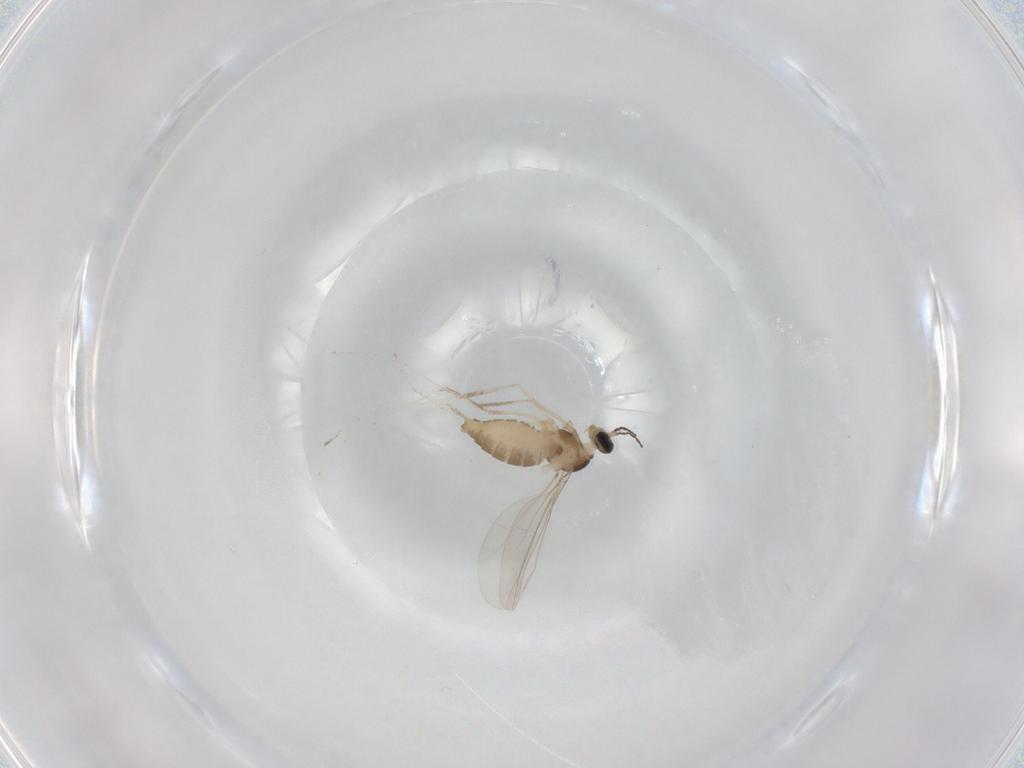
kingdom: Animalia
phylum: Arthropoda
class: Insecta
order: Diptera
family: Cecidomyiidae
